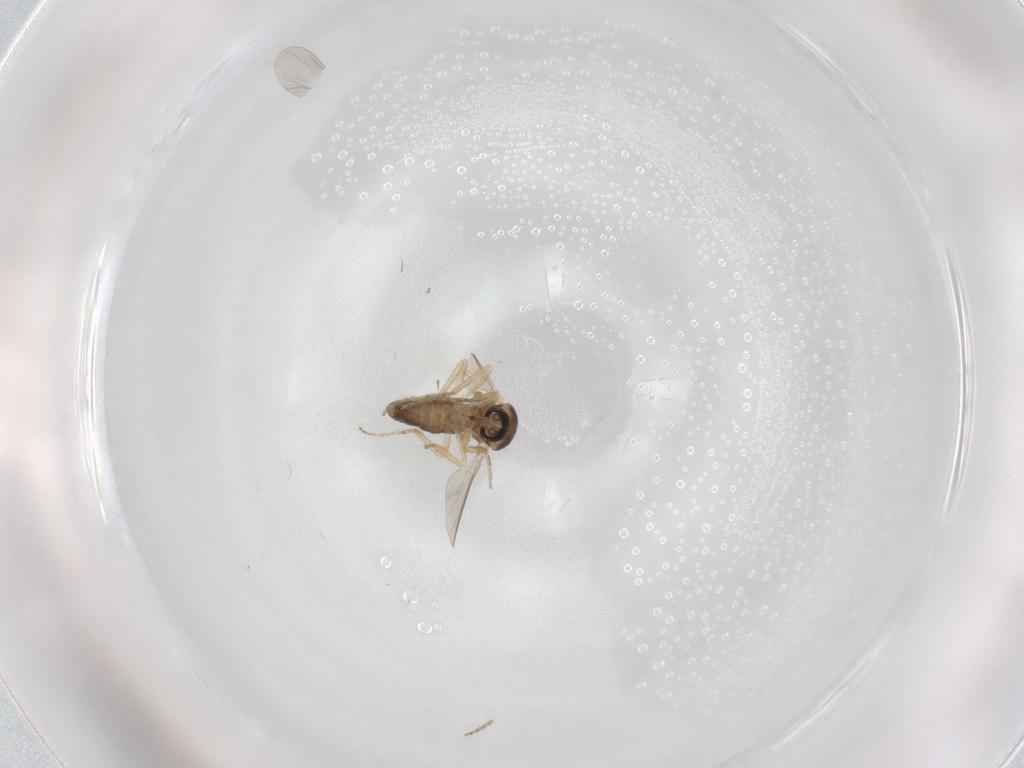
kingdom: Animalia
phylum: Arthropoda
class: Insecta
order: Diptera
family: Ceratopogonidae
